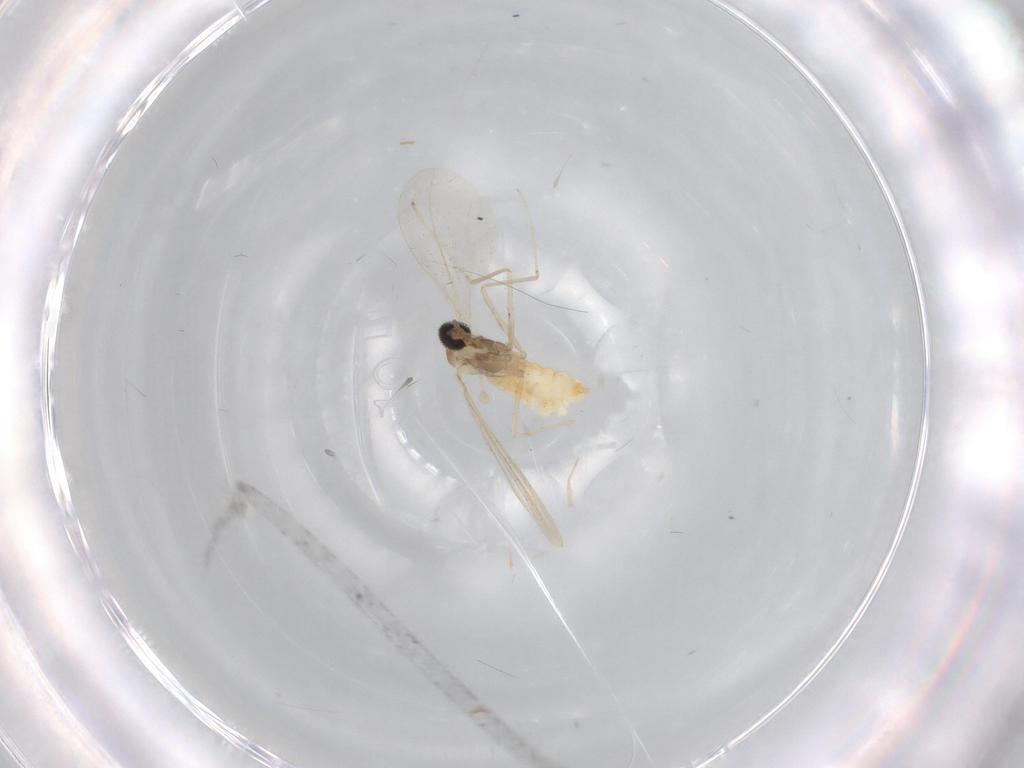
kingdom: Animalia
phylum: Arthropoda
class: Insecta
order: Diptera
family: Cecidomyiidae
